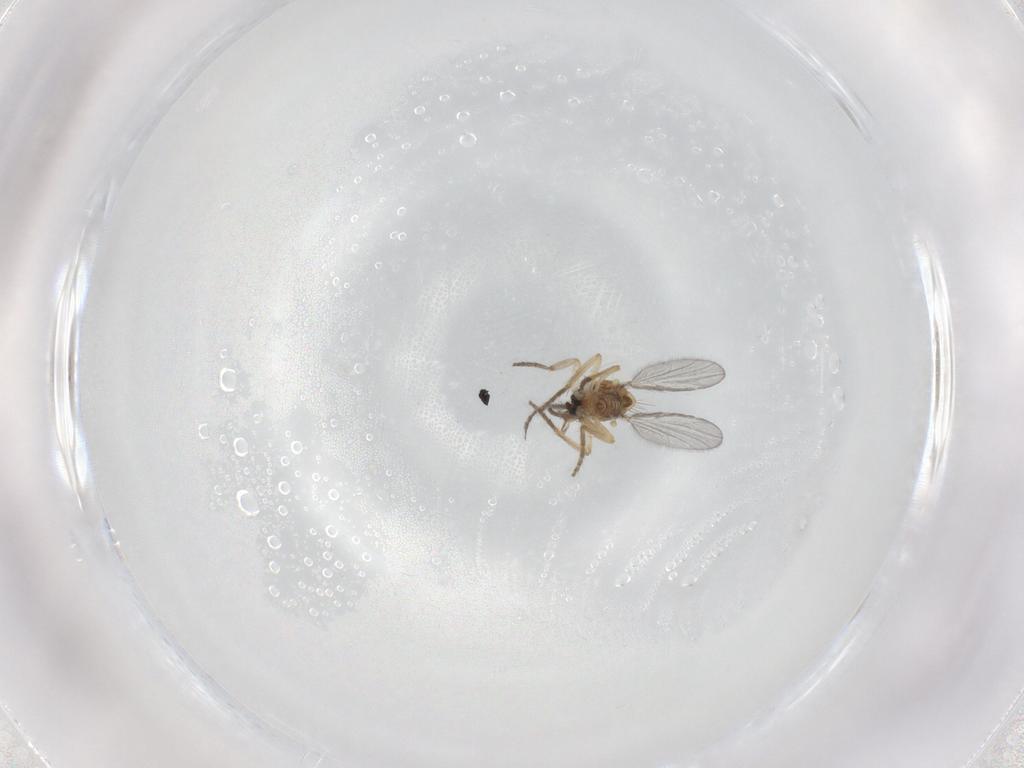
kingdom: Animalia
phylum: Arthropoda
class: Insecta
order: Diptera
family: Ceratopogonidae
